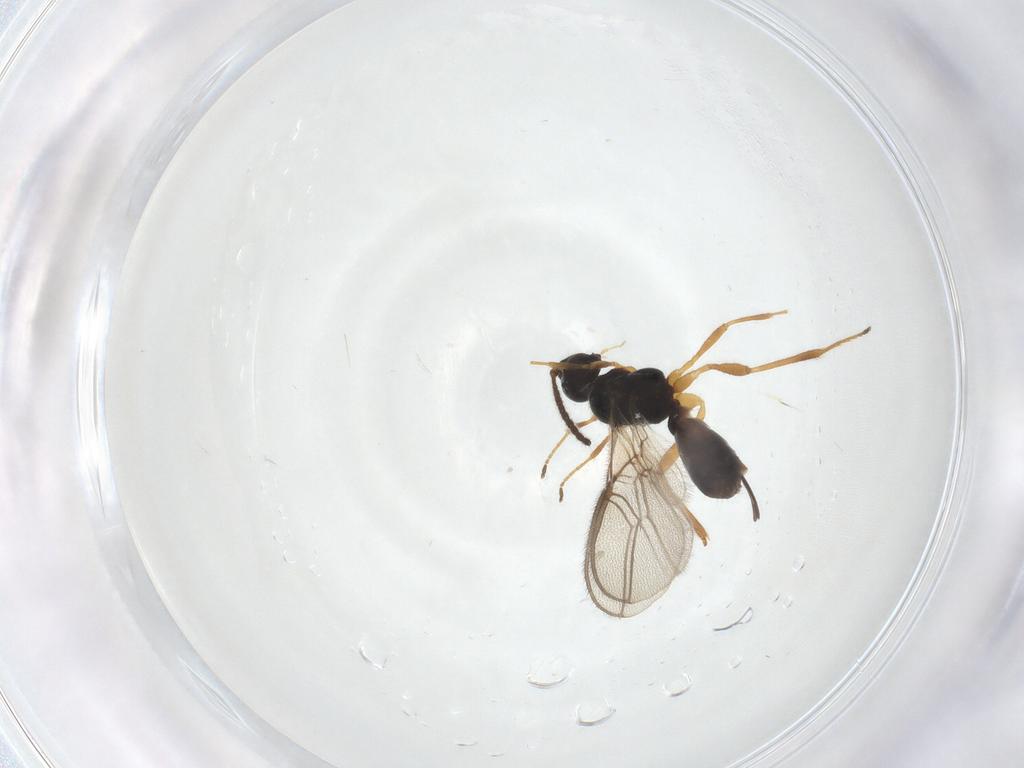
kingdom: Animalia
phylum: Arthropoda
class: Insecta
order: Hymenoptera
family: Braconidae
